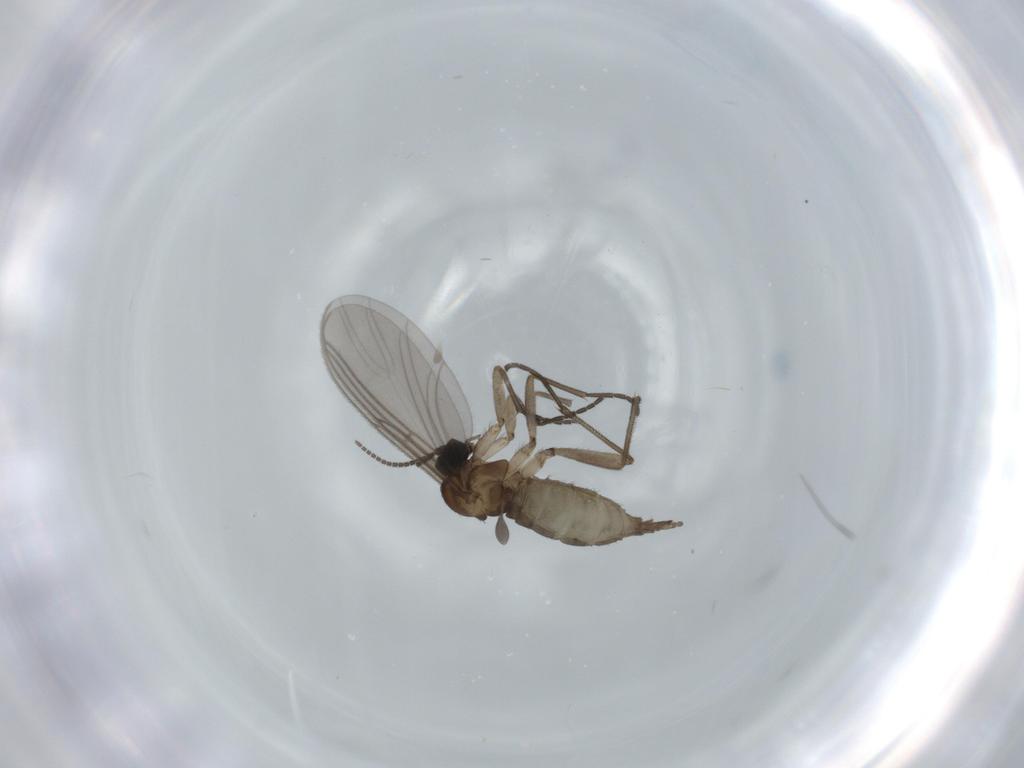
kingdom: Animalia
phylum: Arthropoda
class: Insecta
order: Diptera
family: Sciaridae
